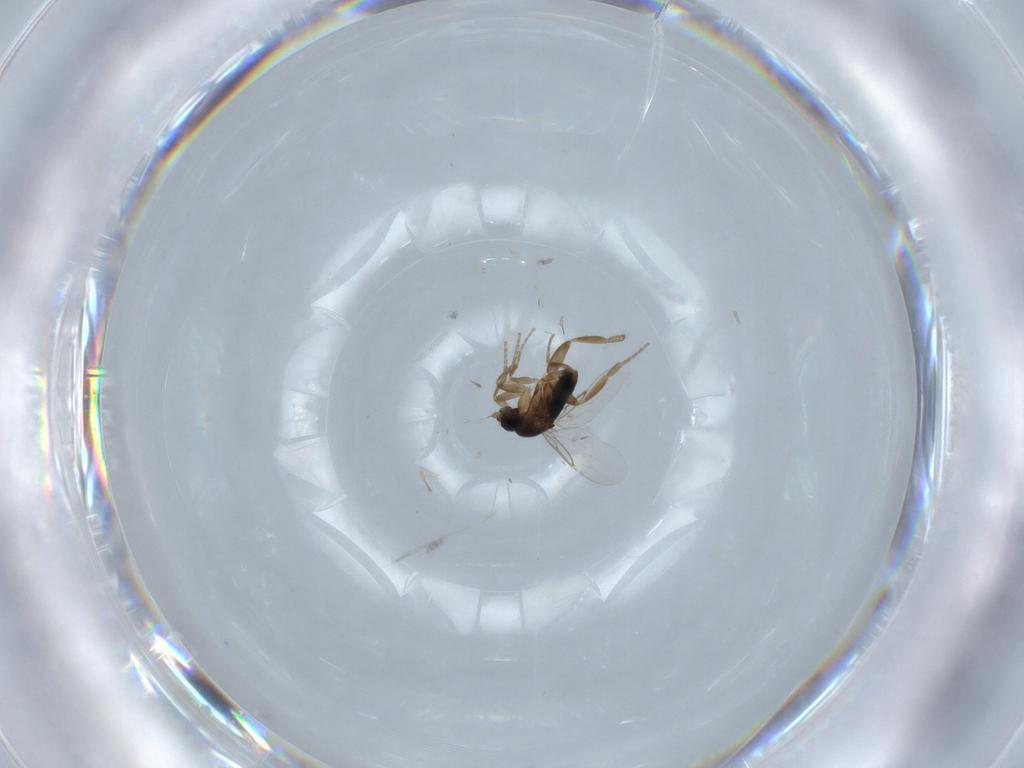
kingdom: Animalia
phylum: Arthropoda
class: Insecta
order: Diptera
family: Phoridae
